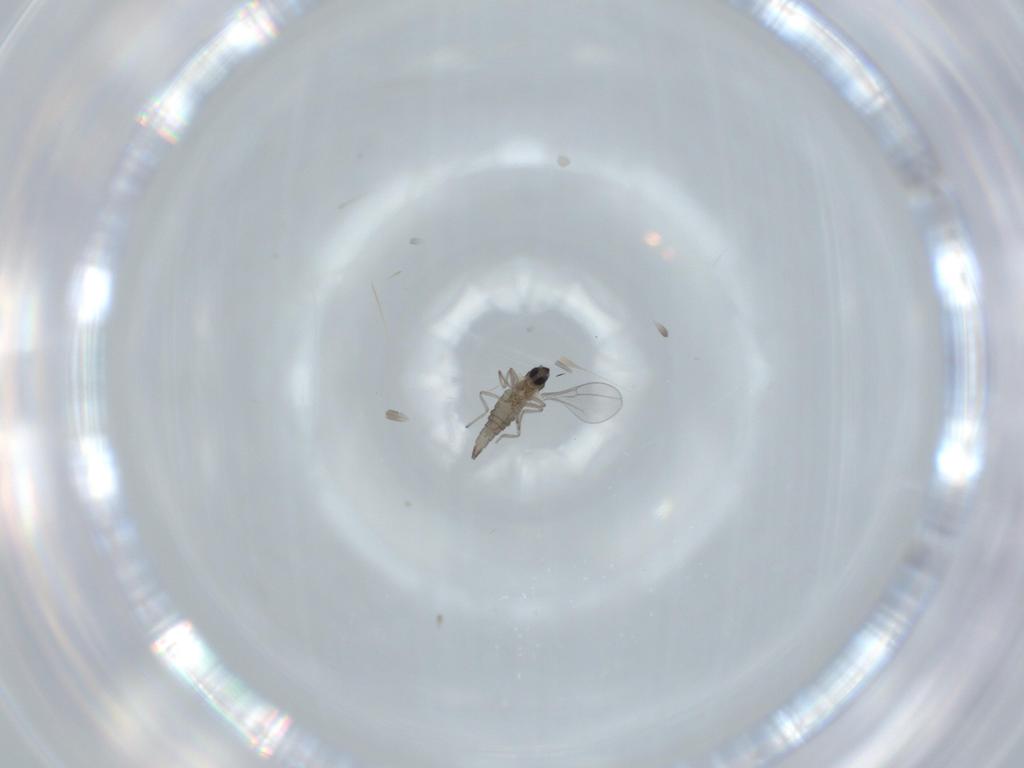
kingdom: Animalia
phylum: Arthropoda
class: Insecta
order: Diptera
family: Cecidomyiidae
